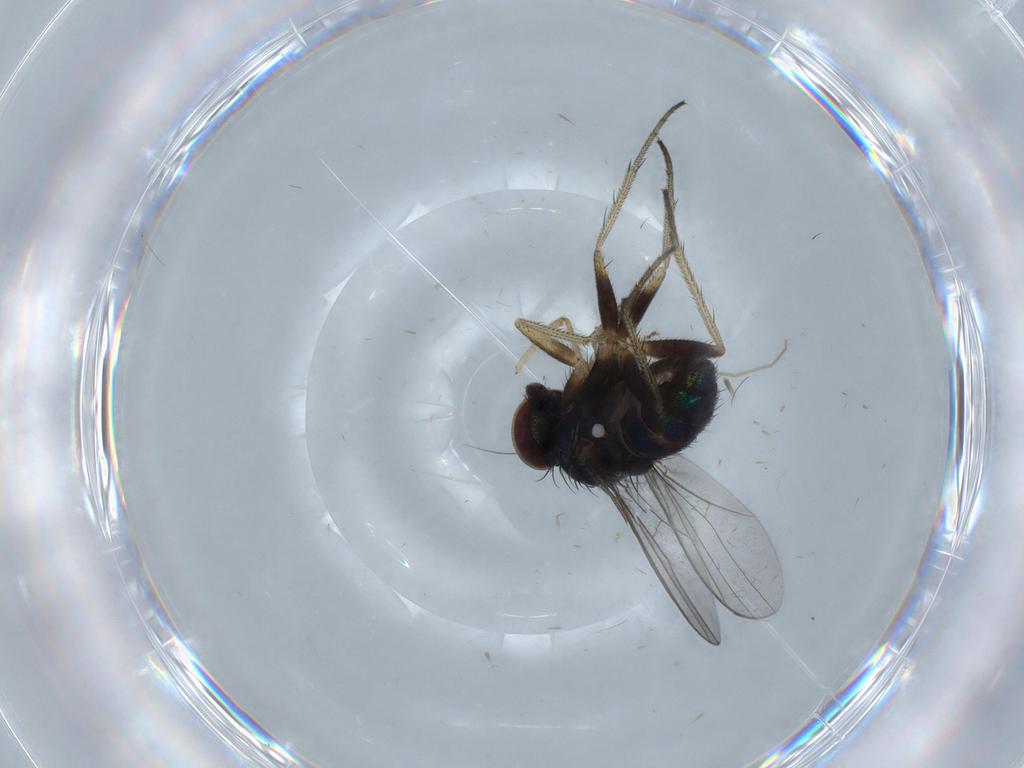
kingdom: Animalia
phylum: Arthropoda
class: Insecta
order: Diptera
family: Dolichopodidae
